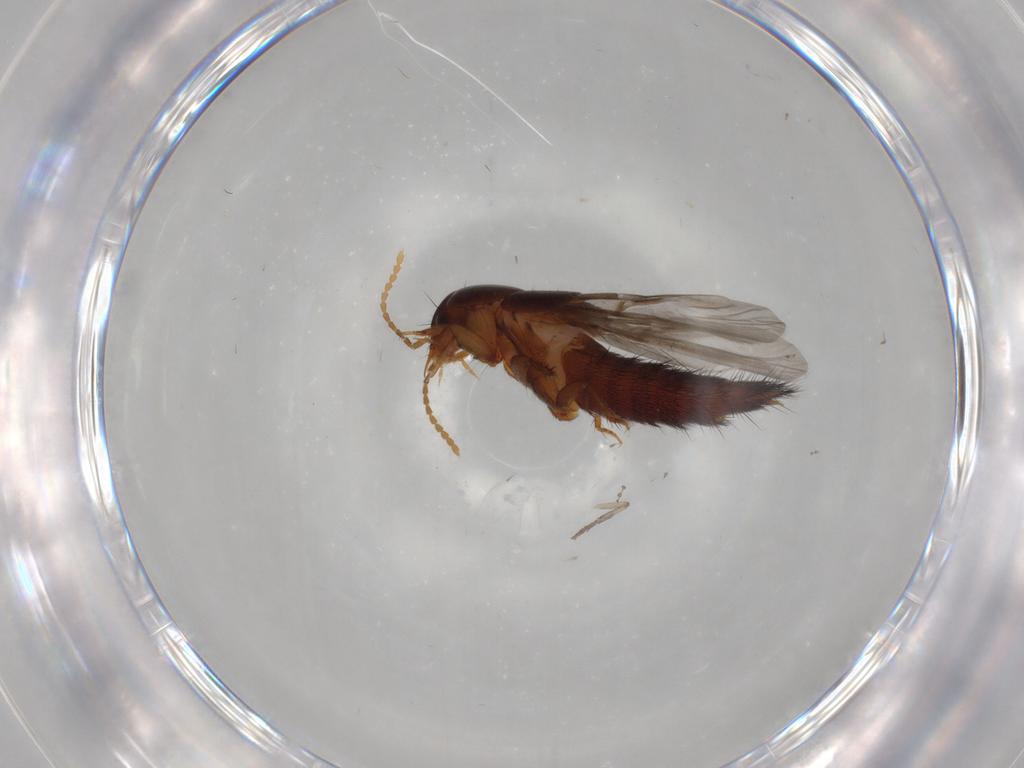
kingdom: Animalia
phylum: Arthropoda
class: Insecta
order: Coleoptera
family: Staphylinidae
